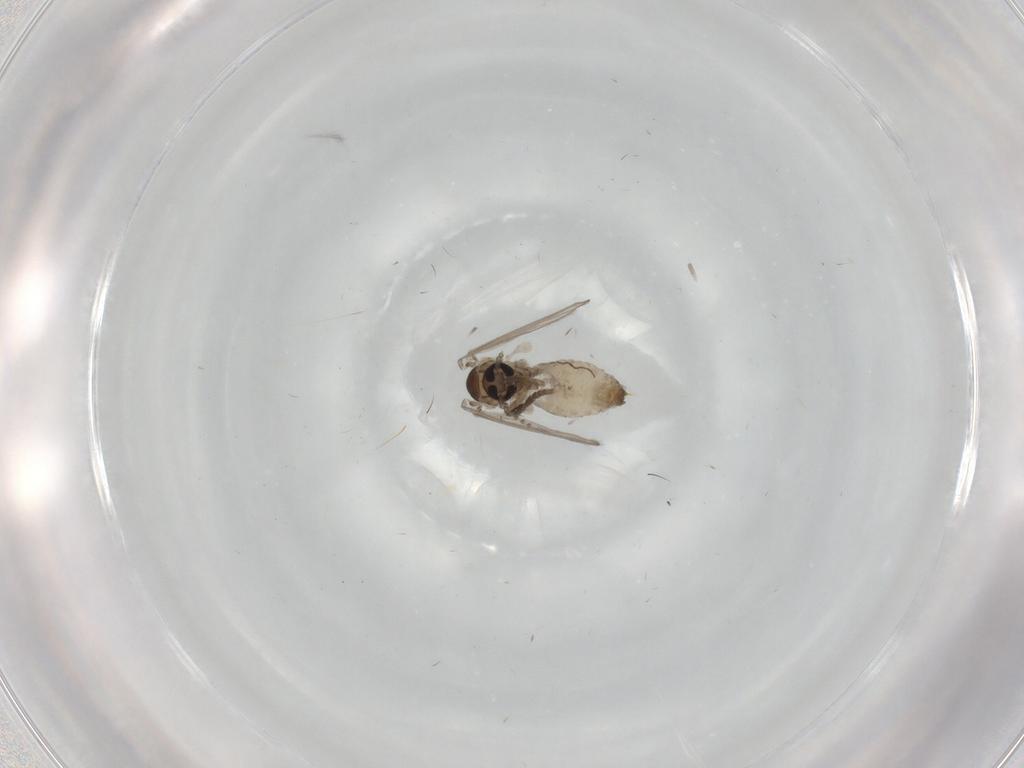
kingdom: Animalia
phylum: Arthropoda
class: Insecta
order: Diptera
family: Psychodidae
